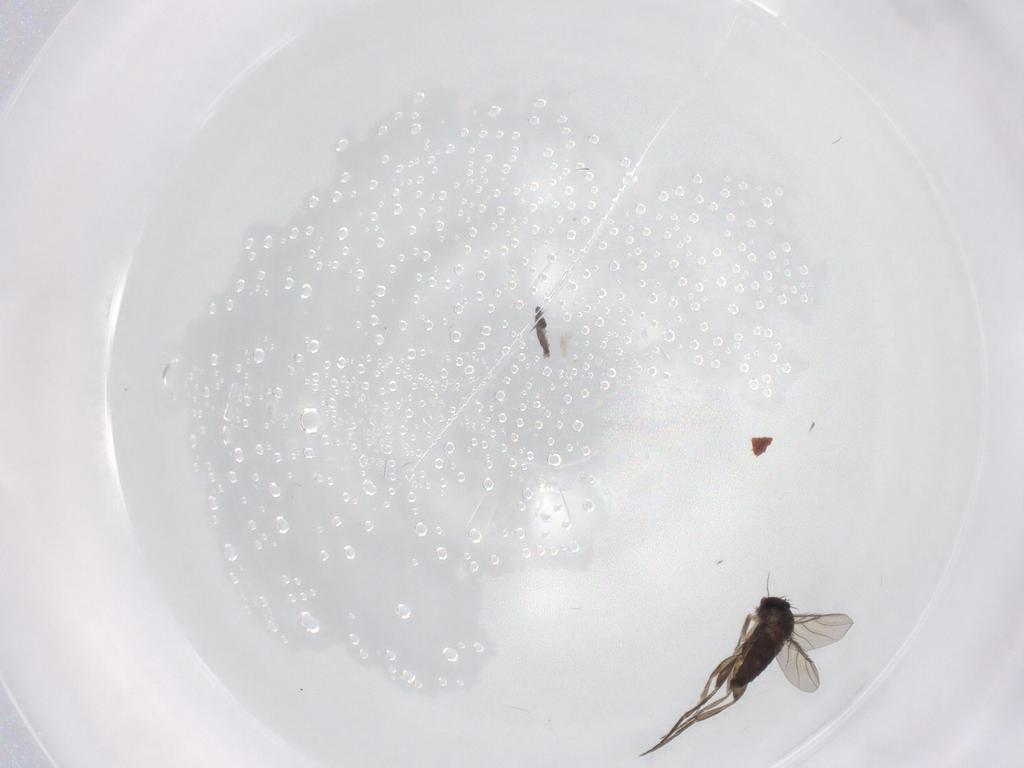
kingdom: Animalia
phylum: Arthropoda
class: Insecta
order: Diptera
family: Phoridae
